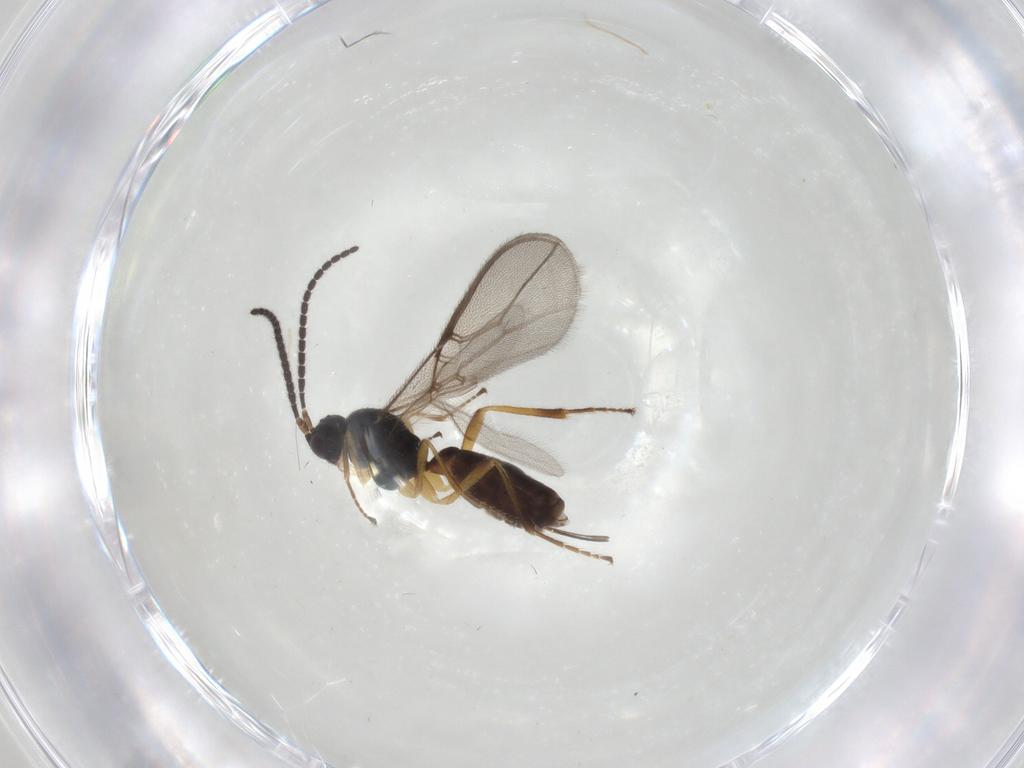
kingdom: Animalia
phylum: Arthropoda
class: Insecta
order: Hymenoptera
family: Braconidae
